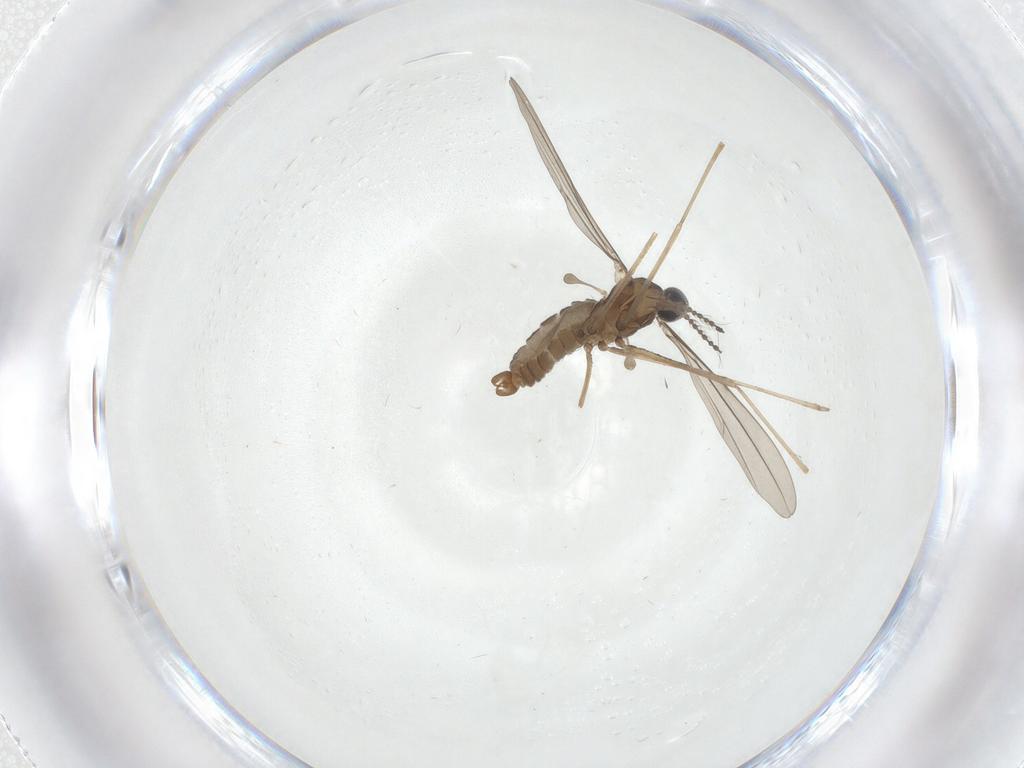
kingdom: Animalia
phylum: Arthropoda
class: Insecta
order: Diptera
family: Cecidomyiidae
